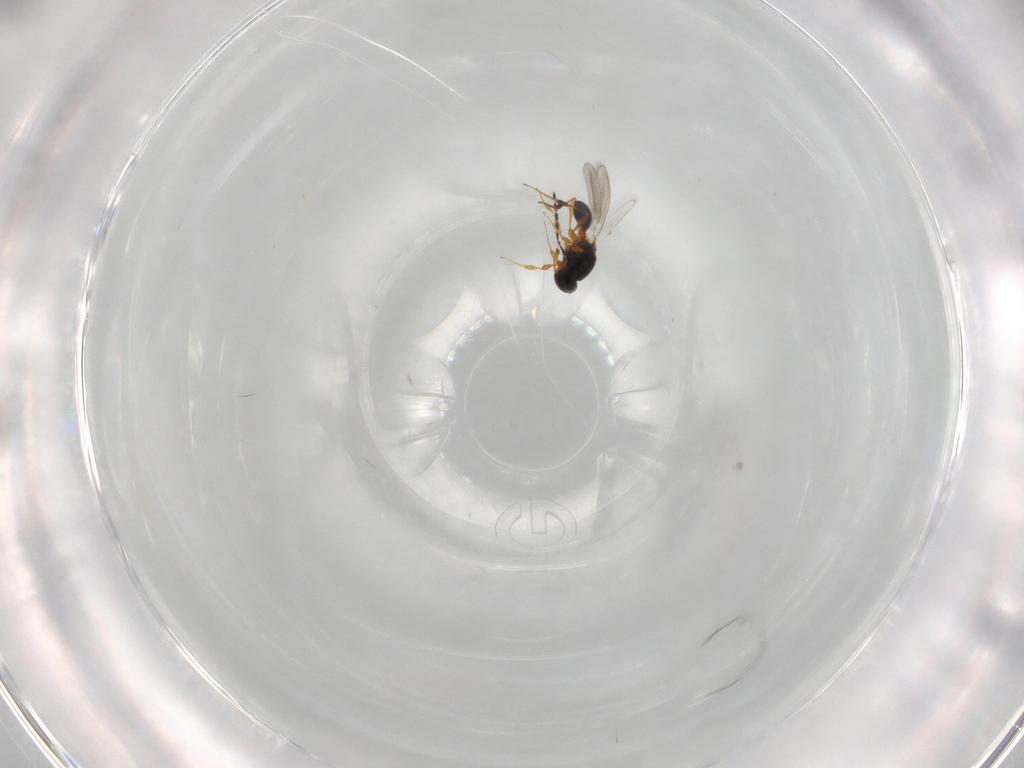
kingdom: Animalia
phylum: Arthropoda
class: Insecta
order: Hymenoptera
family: Platygastridae
